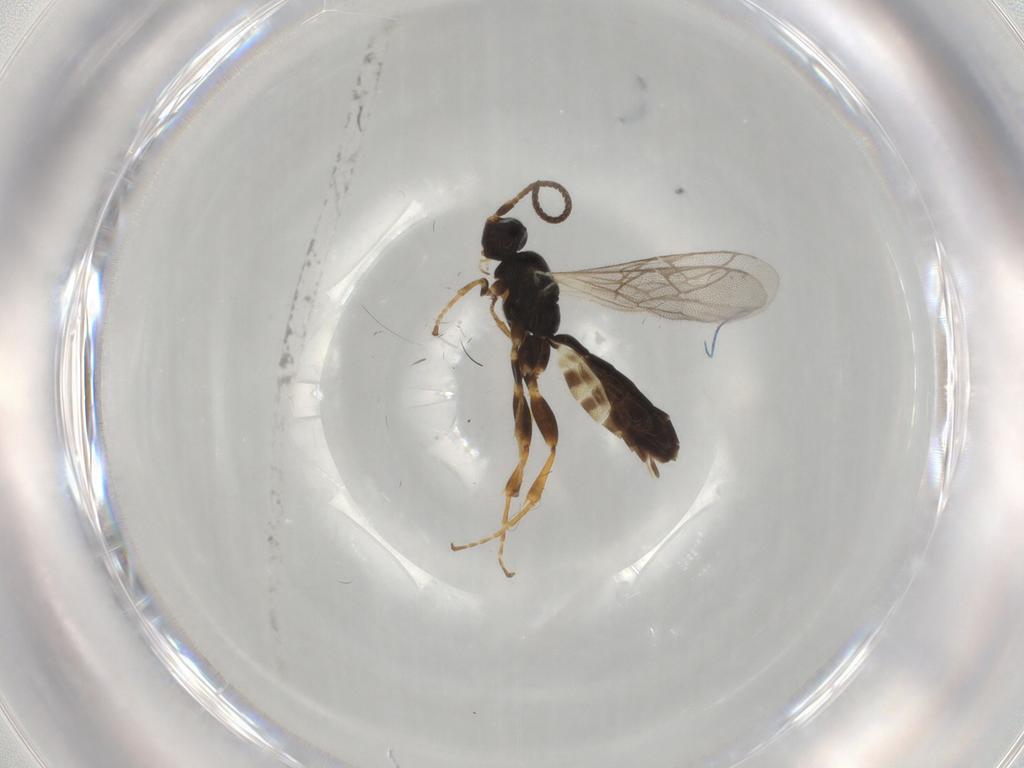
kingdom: Animalia
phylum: Arthropoda
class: Insecta
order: Hymenoptera
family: Ichneumonidae
